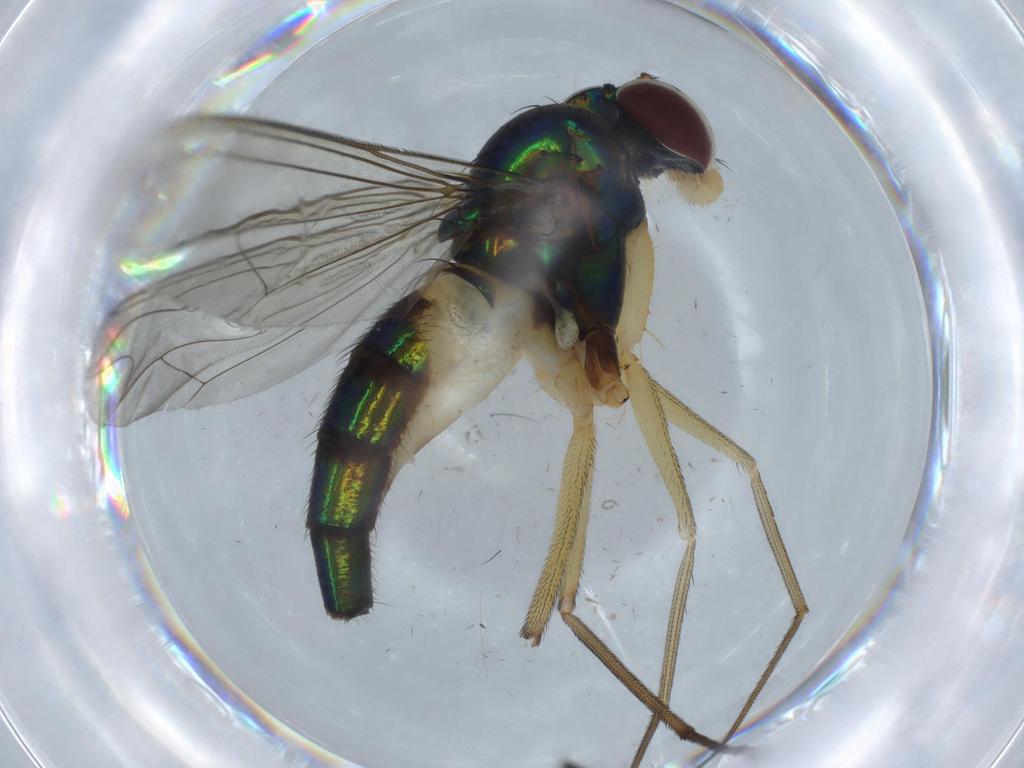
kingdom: Animalia
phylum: Arthropoda
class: Insecta
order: Diptera
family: Dolichopodidae
